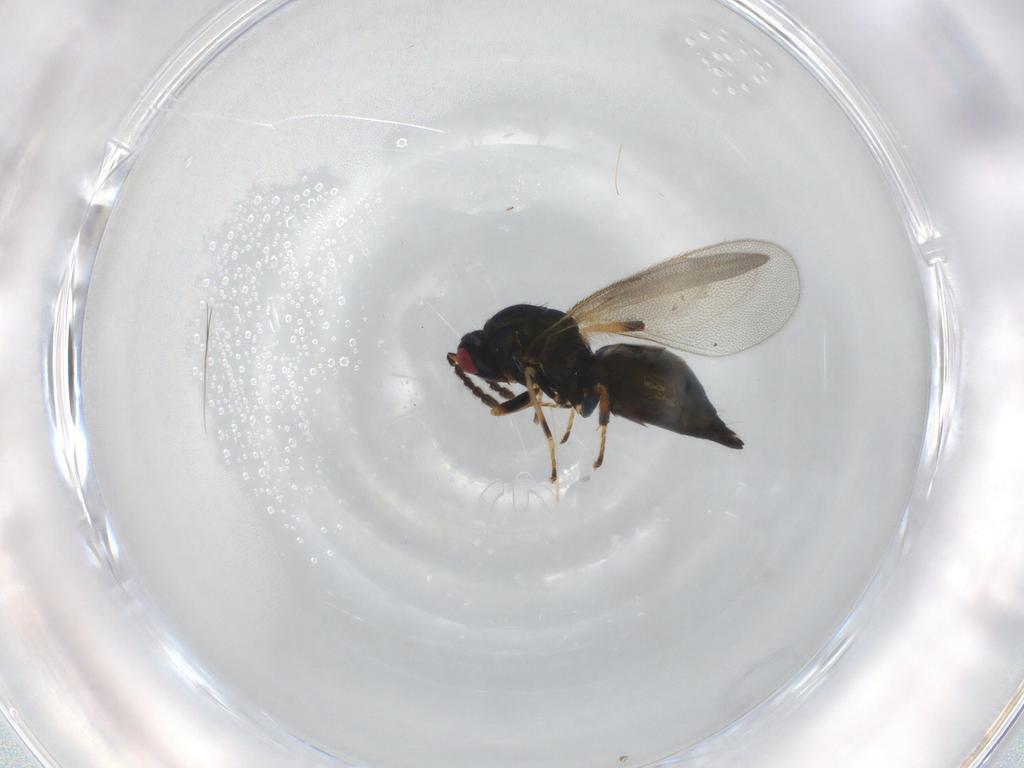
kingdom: Animalia
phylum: Arthropoda
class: Insecta
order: Hymenoptera
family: Eulophidae
